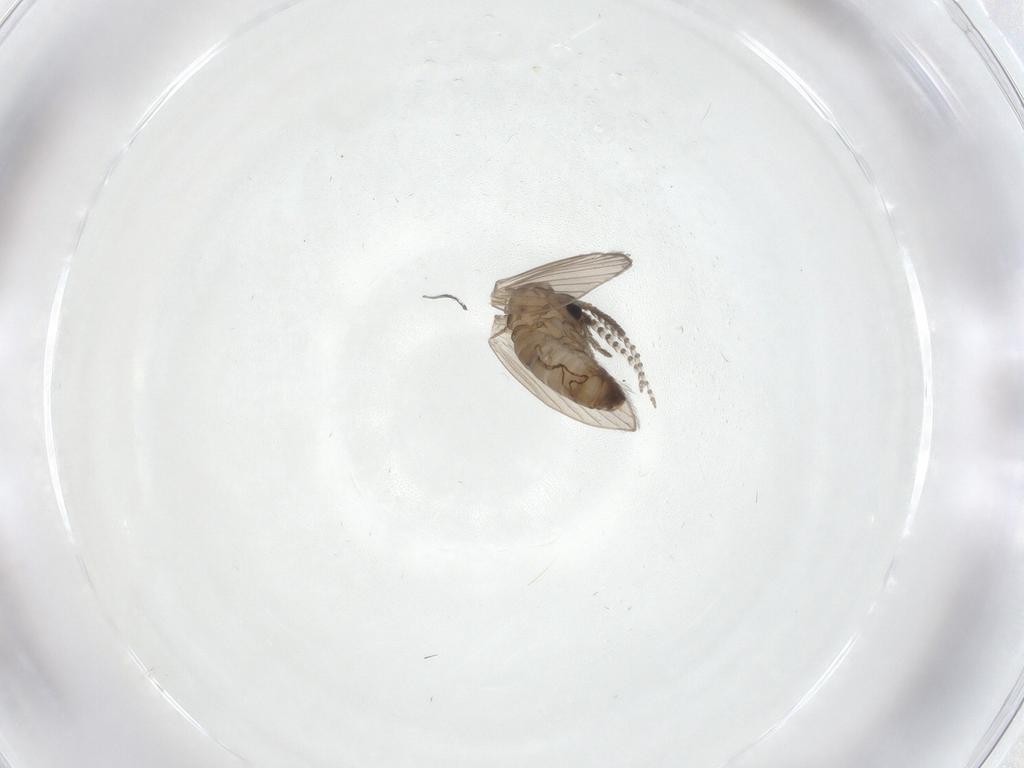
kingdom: Animalia
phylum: Arthropoda
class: Insecta
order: Diptera
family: Psychodidae
